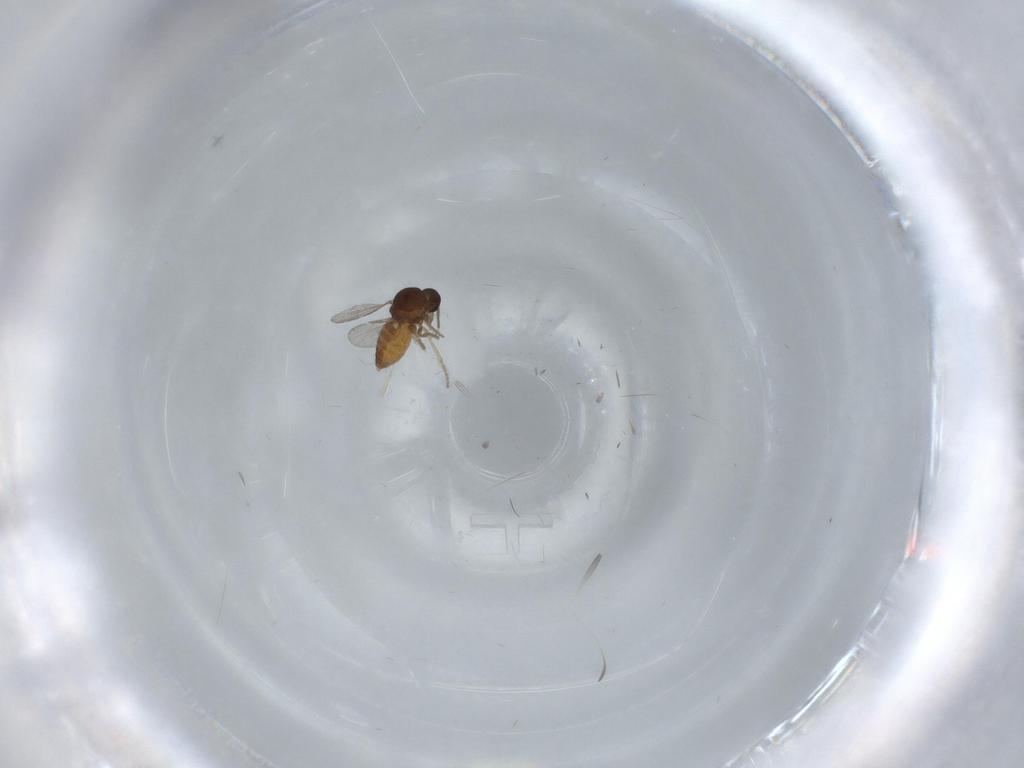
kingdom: Animalia
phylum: Arthropoda
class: Insecta
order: Diptera
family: Ceratopogonidae
